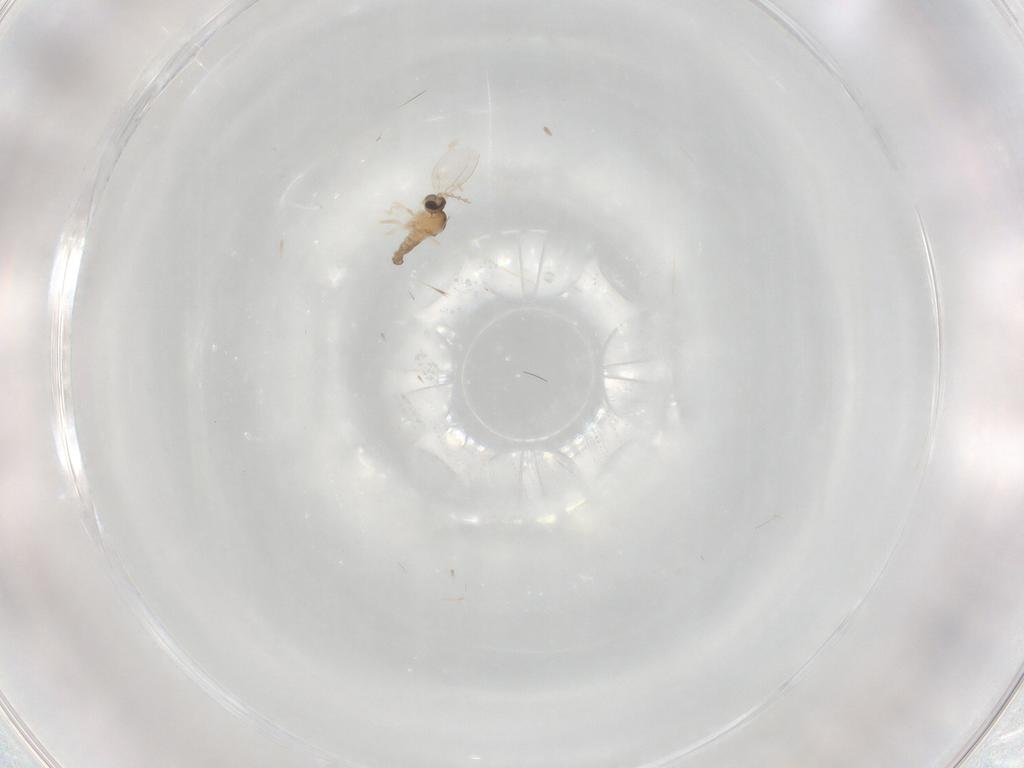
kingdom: Animalia
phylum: Arthropoda
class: Insecta
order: Diptera
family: Cecidomyiidae
